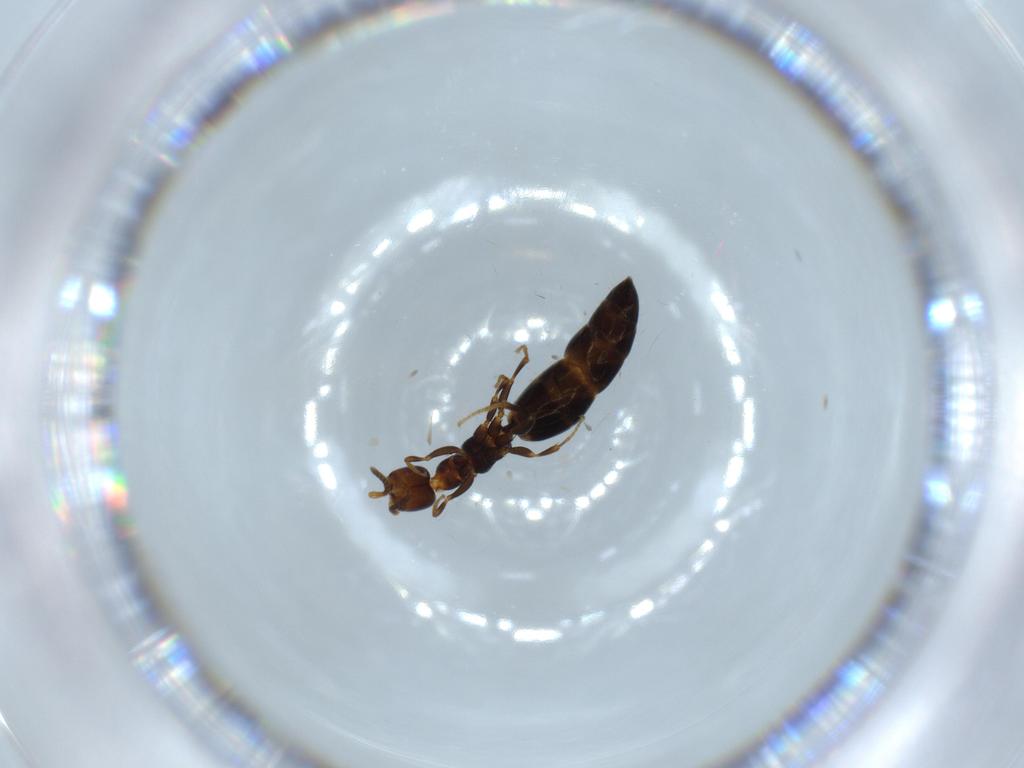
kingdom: Animalia
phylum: Arthropoda
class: Insecta
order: Hymenoptera
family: Bethylidae
